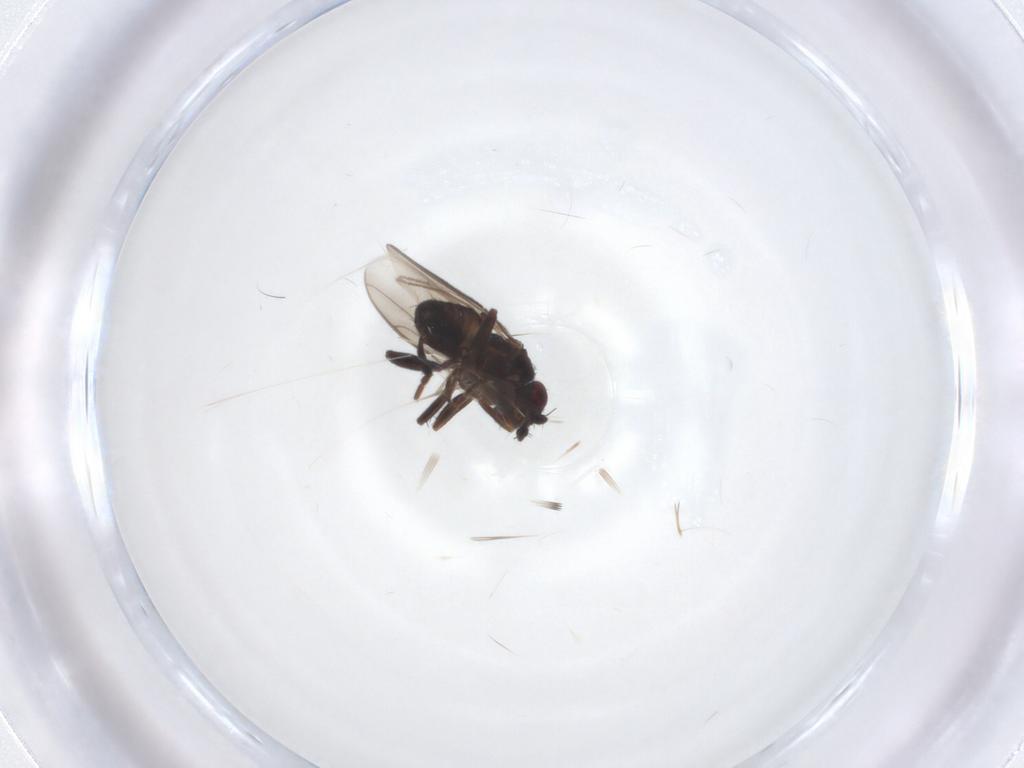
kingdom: Animalia
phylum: Arthropoda
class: Insecta
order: Diptera
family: Sphaeroceridae
